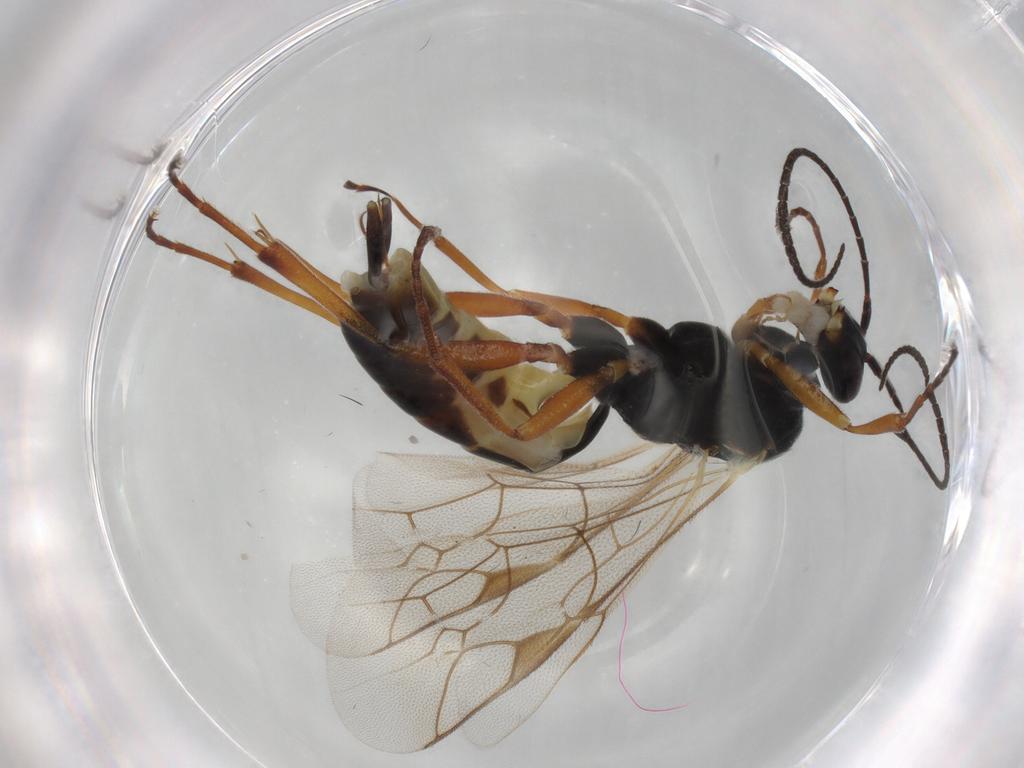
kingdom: Animalia
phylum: Arthropoda
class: Insecta
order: Hymenoptera
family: Ichneumonidae
